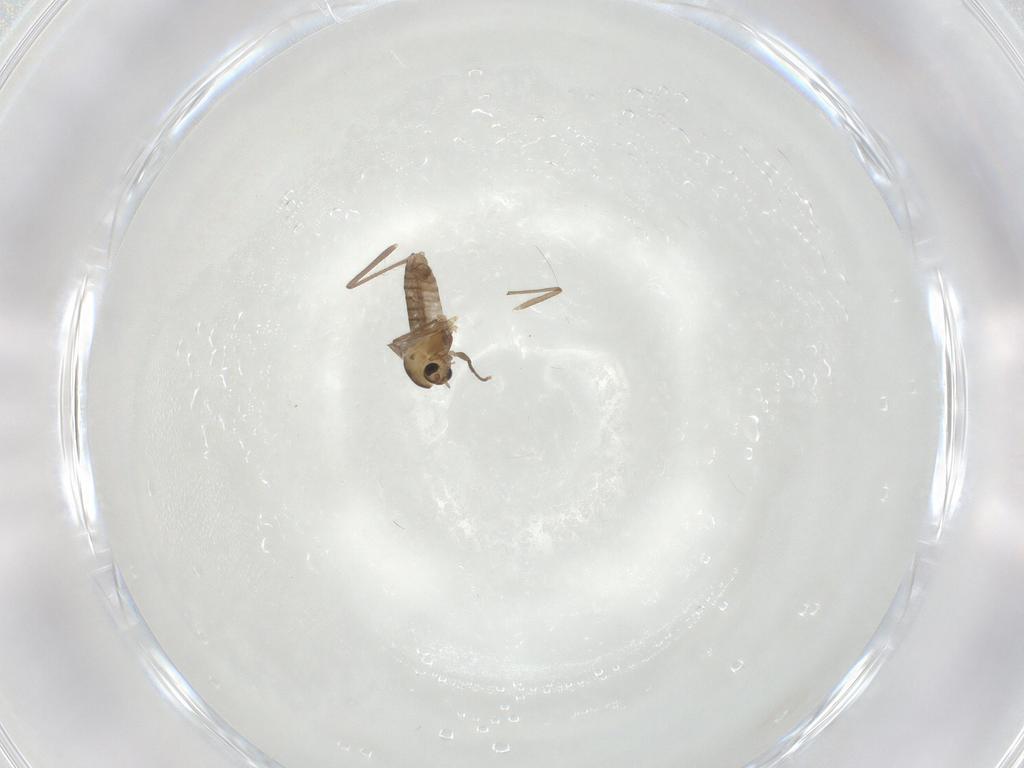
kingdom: Animalia
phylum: Arthropoda
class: Insecta
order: Diptera
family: Chironomidae
